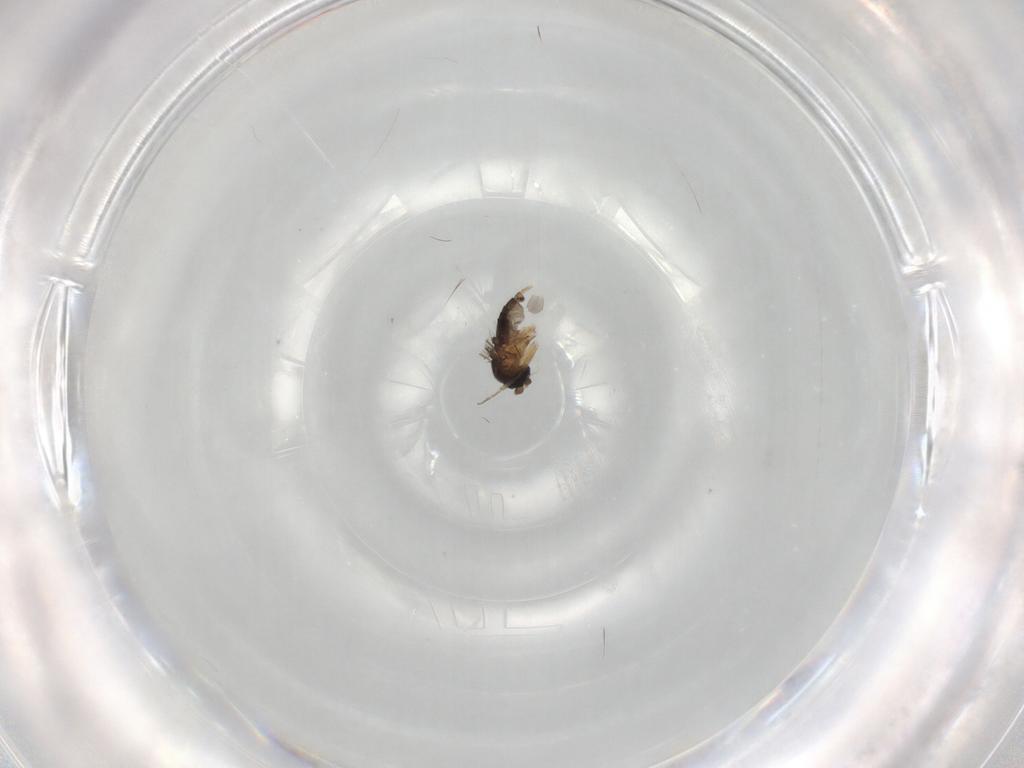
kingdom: Animalia
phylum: Arthropoda
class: Insecta
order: Diptera
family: Phoridae
